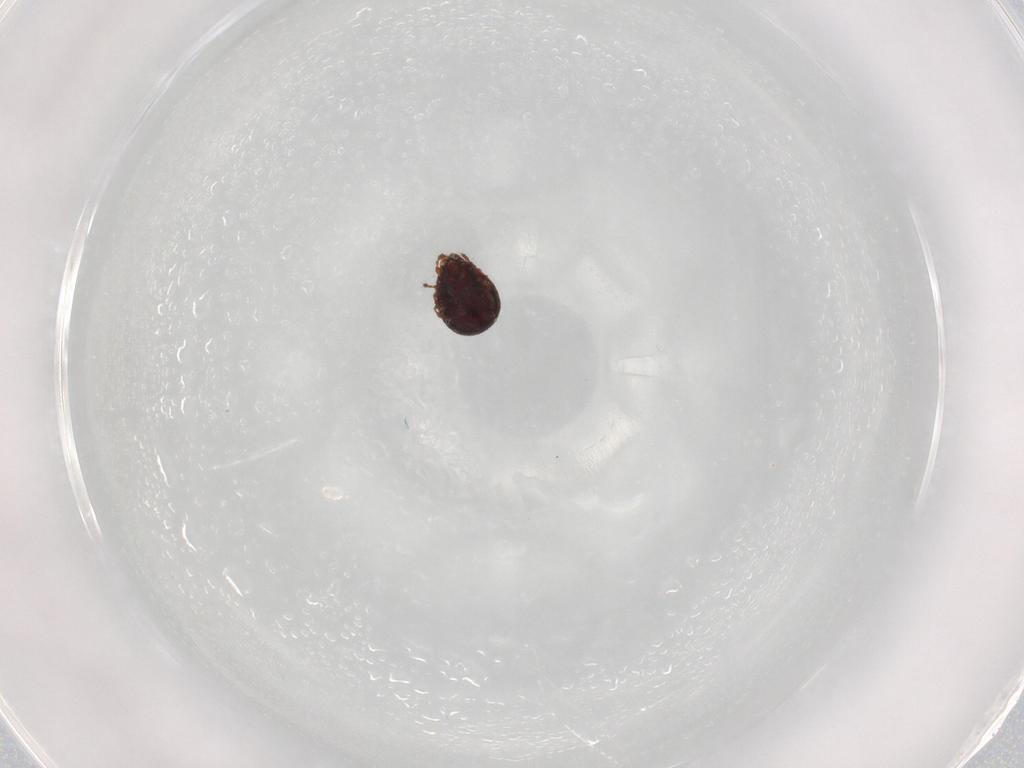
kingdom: Animalia
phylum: Arthropoda
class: Arachnida
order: Sarcoptiformes
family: Cepheusidae
